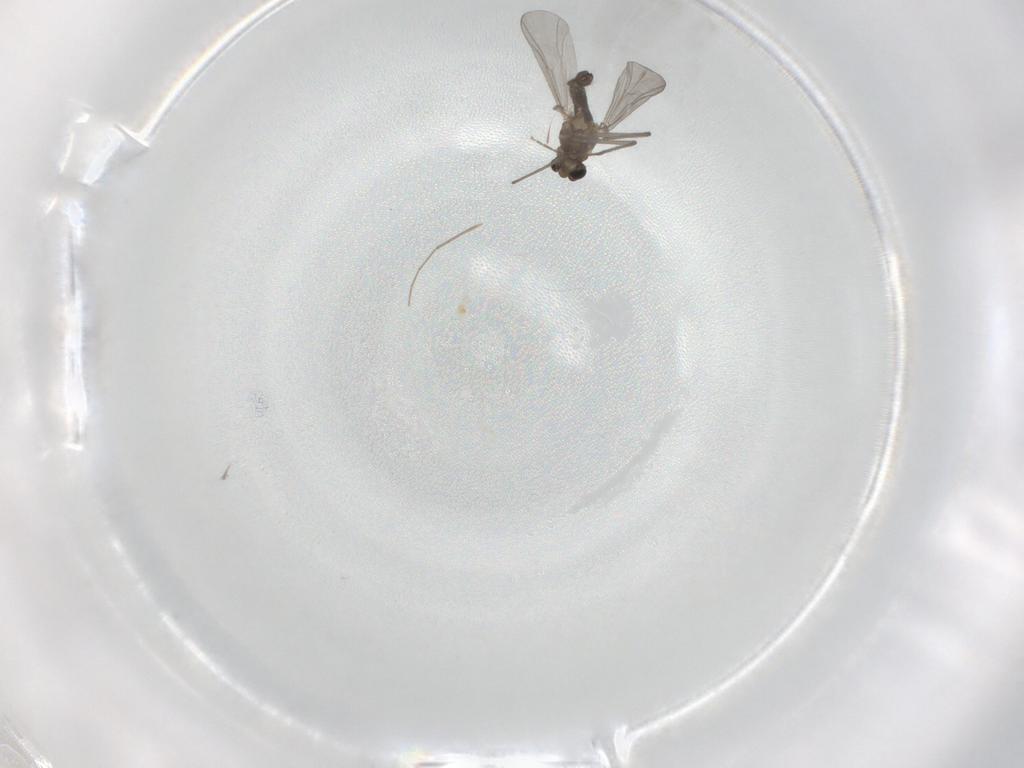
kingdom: Animalia
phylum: Arthropoda
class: Insecta
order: Diptera
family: Chironomidae
